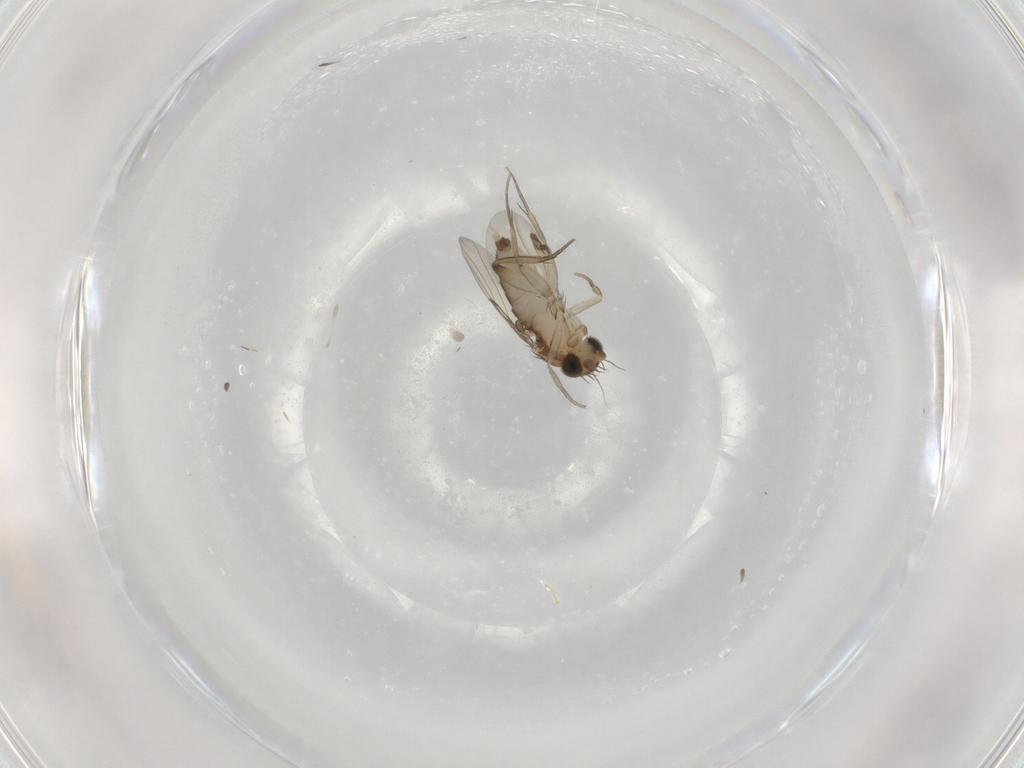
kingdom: Animalia
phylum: Arthropoda
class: Insecta
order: Diptera
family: Phoridae
